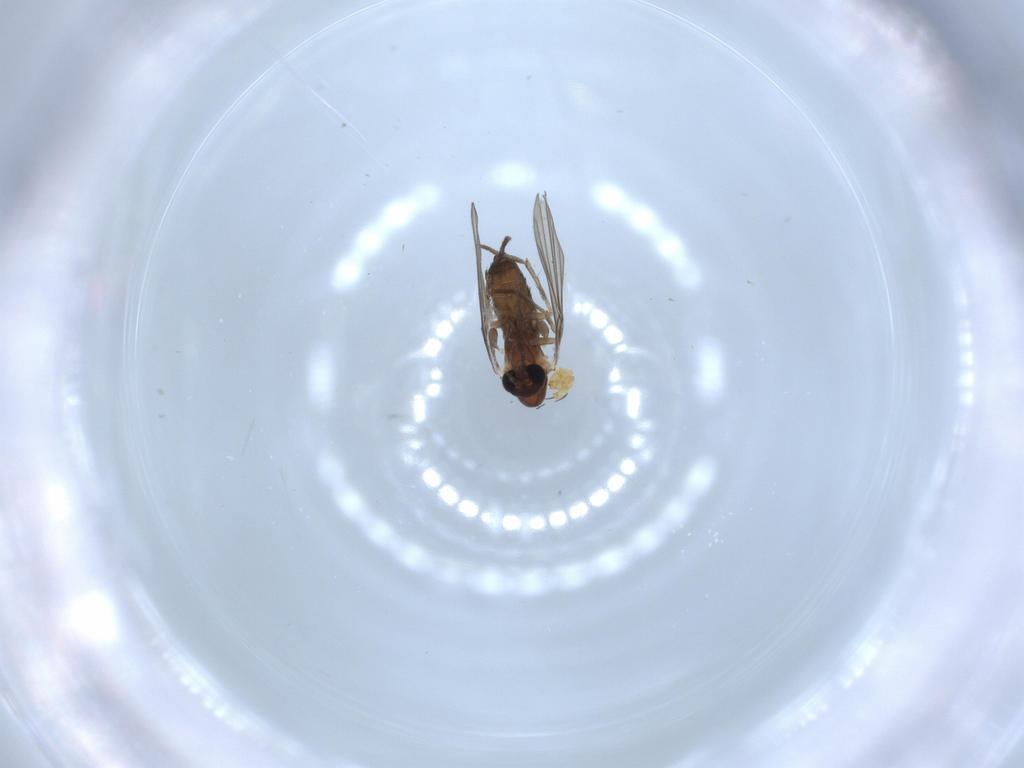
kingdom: Animalia
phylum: Arthropoda
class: Insecta
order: Diptera
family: Psychodidae
